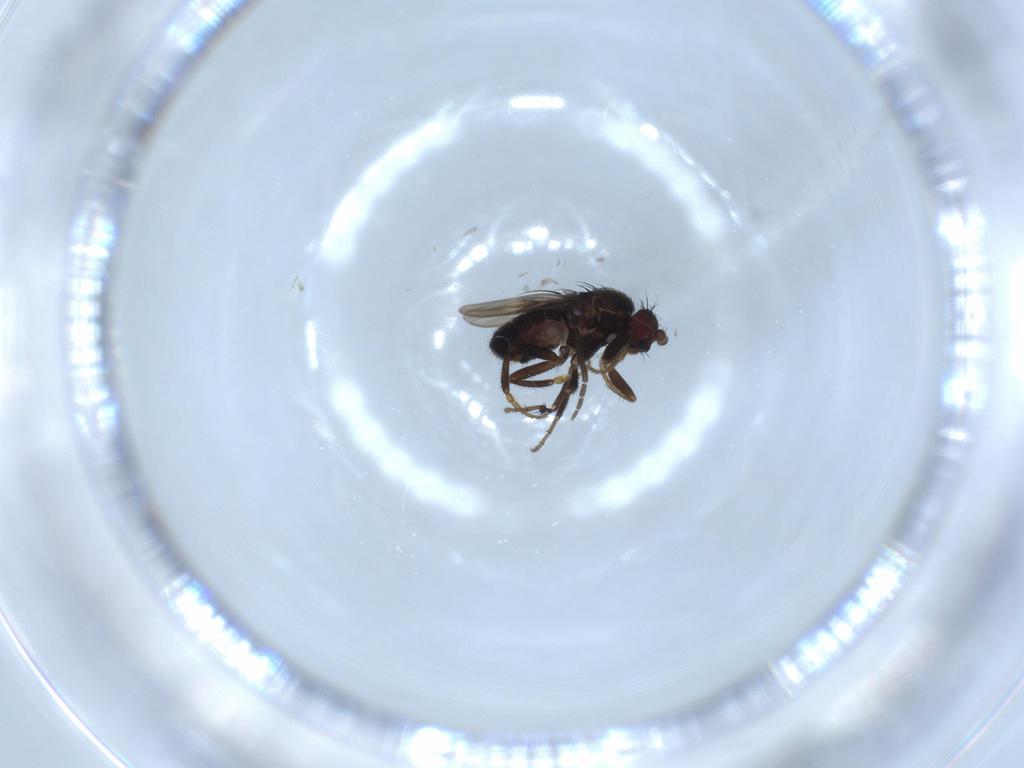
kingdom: Animalia
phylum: Arthropoda
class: Insecta
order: Diptera
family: Sciaridae
